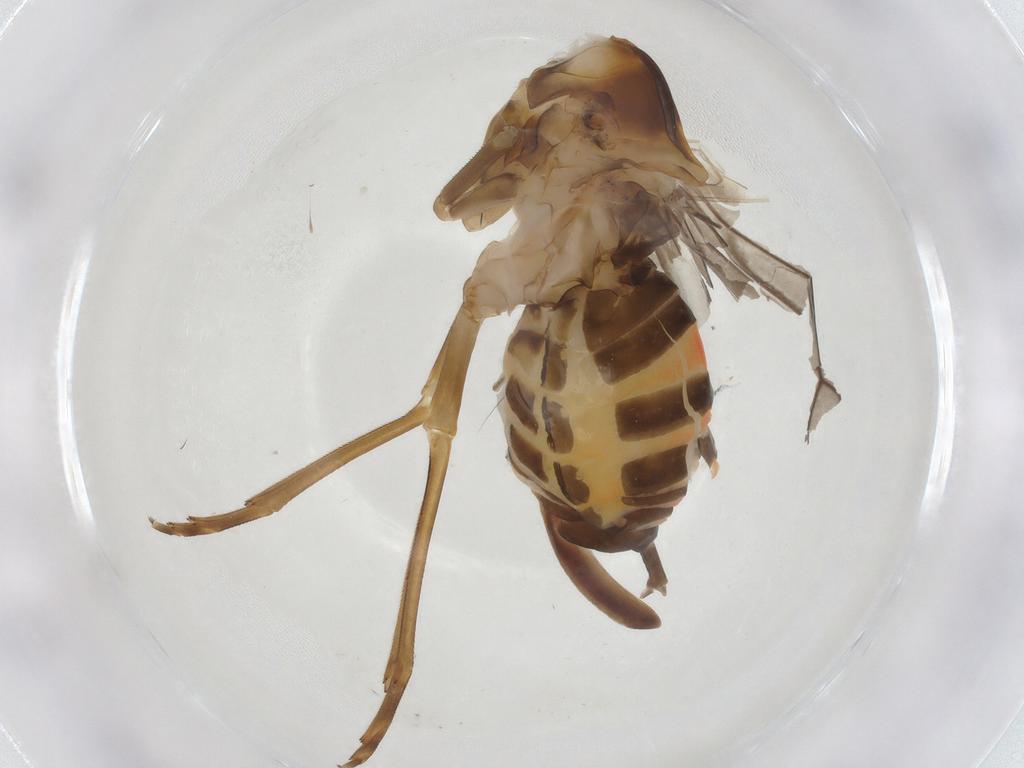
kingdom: Animalia
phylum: Arthropoda
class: Insecta
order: Hemiptera
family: Cixiidae
